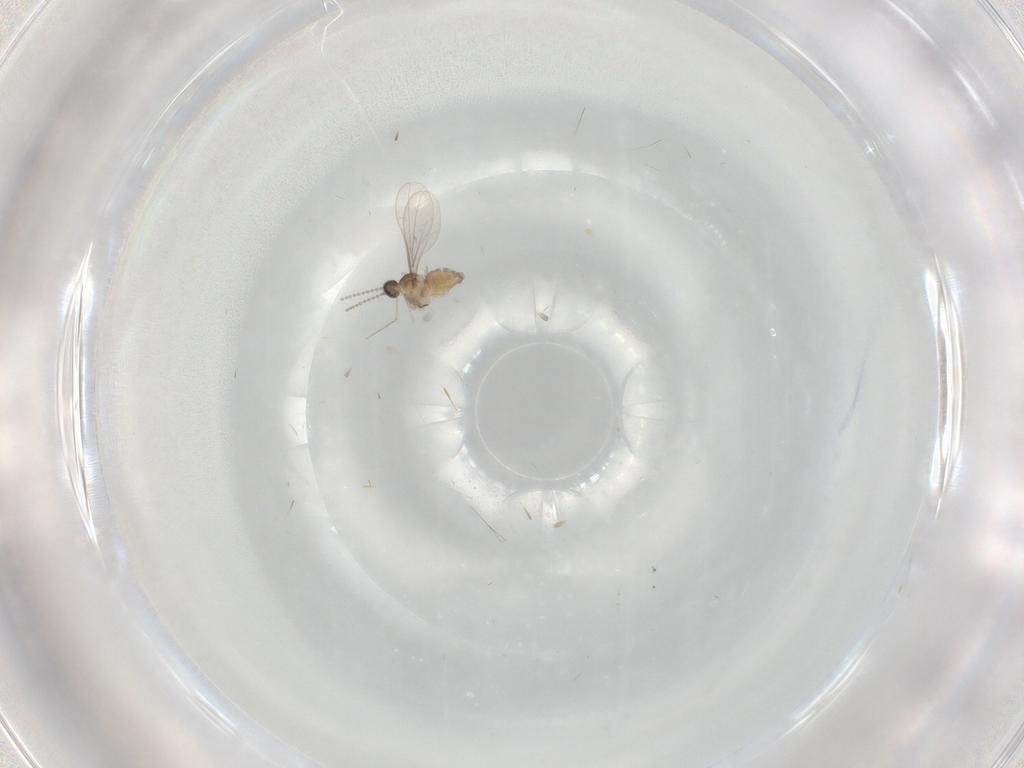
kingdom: Animalia
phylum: Arthropoda
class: Insecta
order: Diptera
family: Cecidomyiidae
